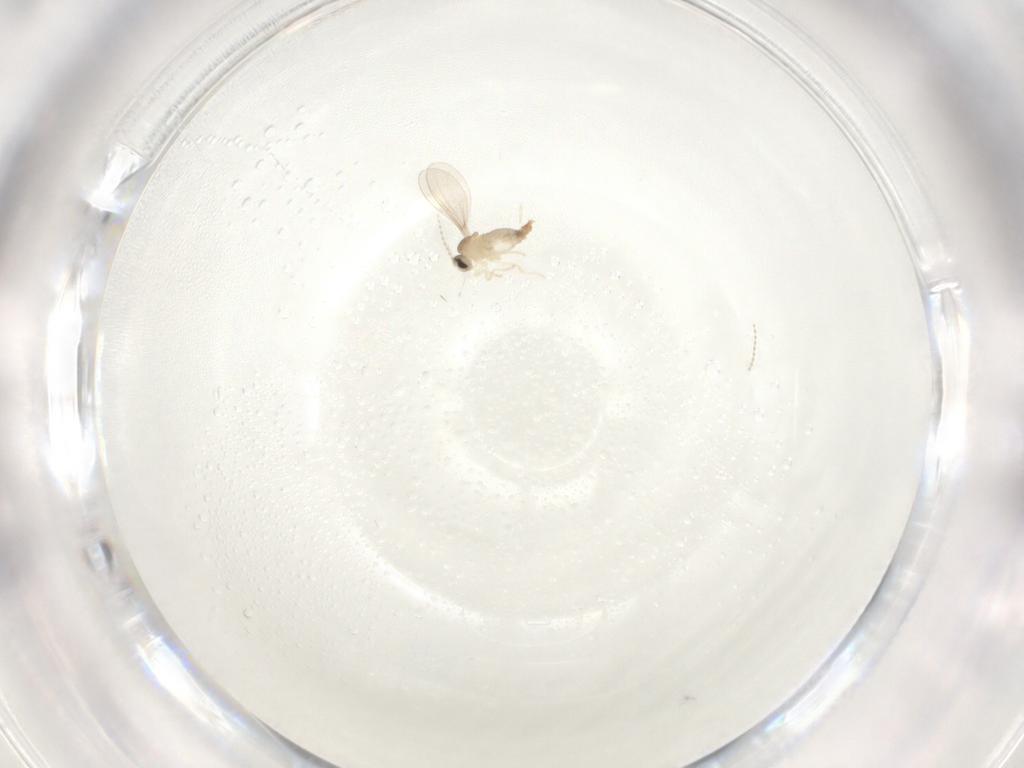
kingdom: Animalia
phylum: Arthropoda
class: Insecta
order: Diptera
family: Cecidomyiidae
